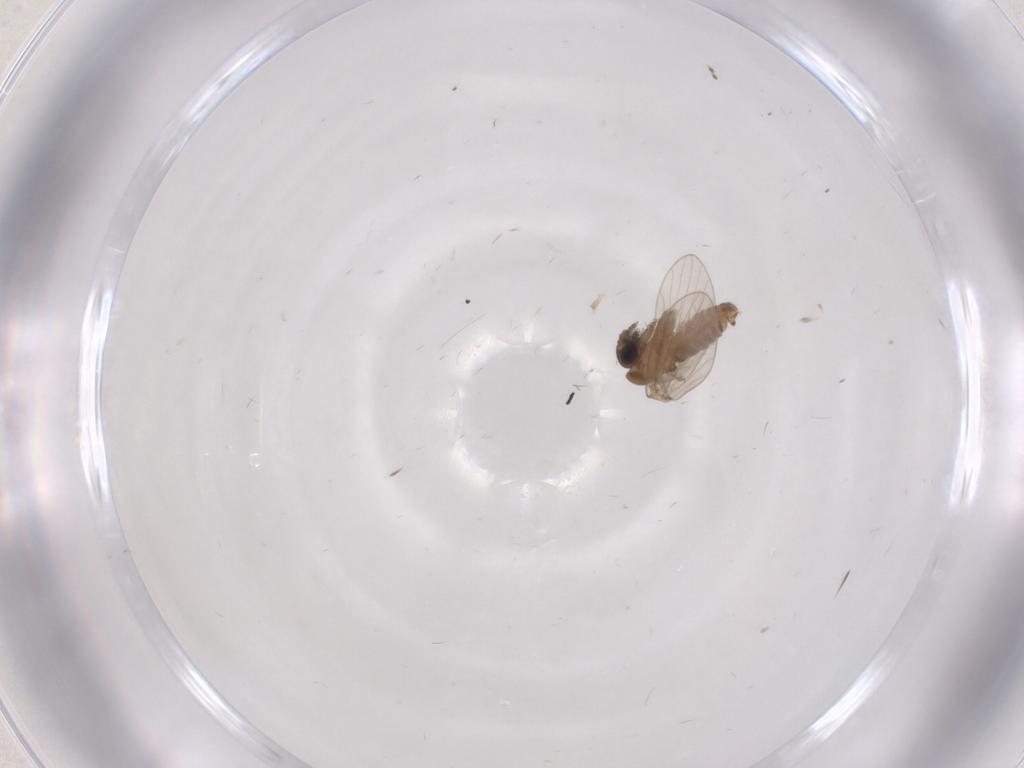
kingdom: Animalia
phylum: Arthropoda
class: Insecta
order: Diptera
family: Psychodidae
